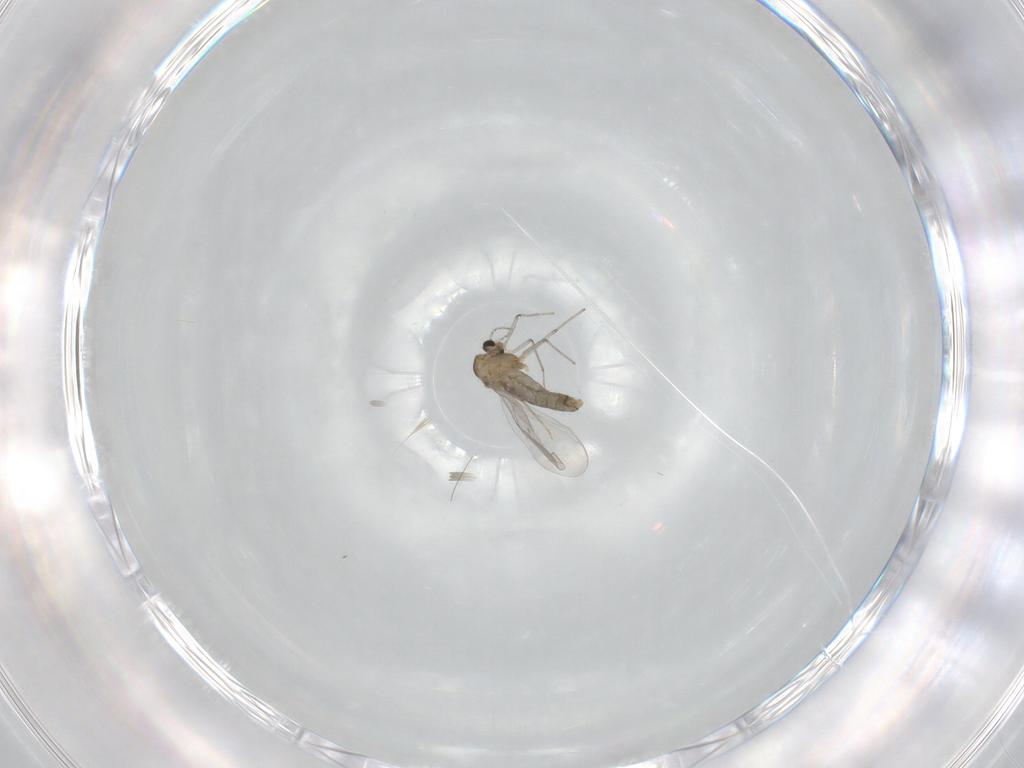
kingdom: Animalia
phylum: Arthropoda
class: Insecta
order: Diptera
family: Chironomidae
